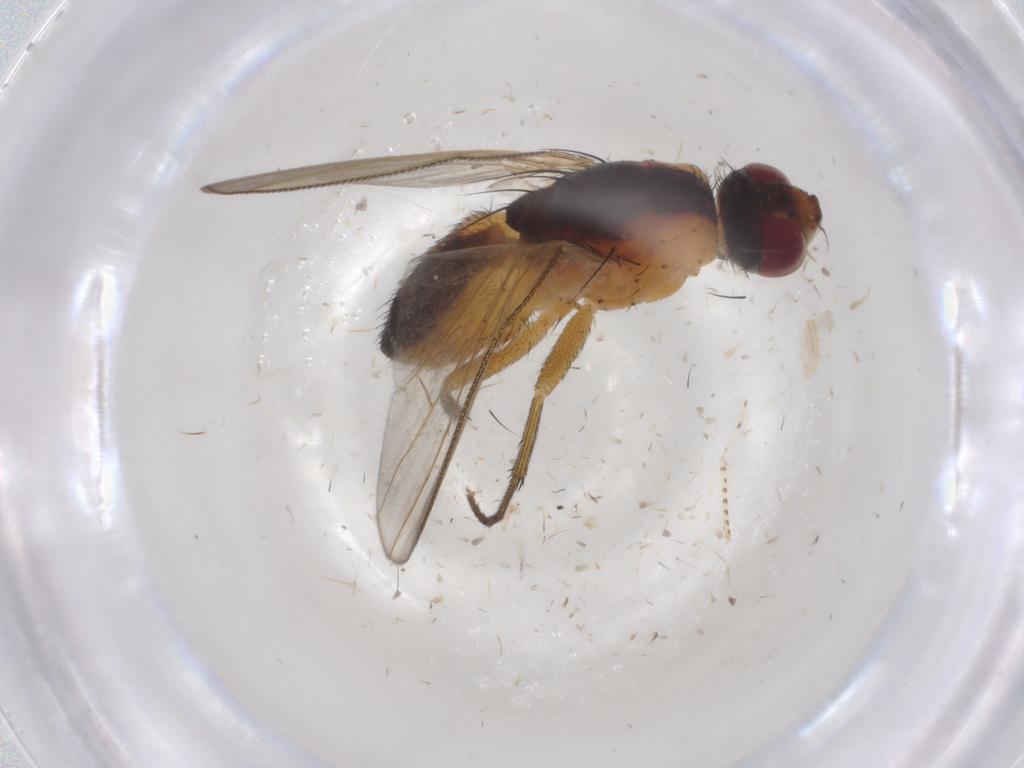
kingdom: Animalia
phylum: Arthropoda
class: Insecta
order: Diptera
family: Muscidae
